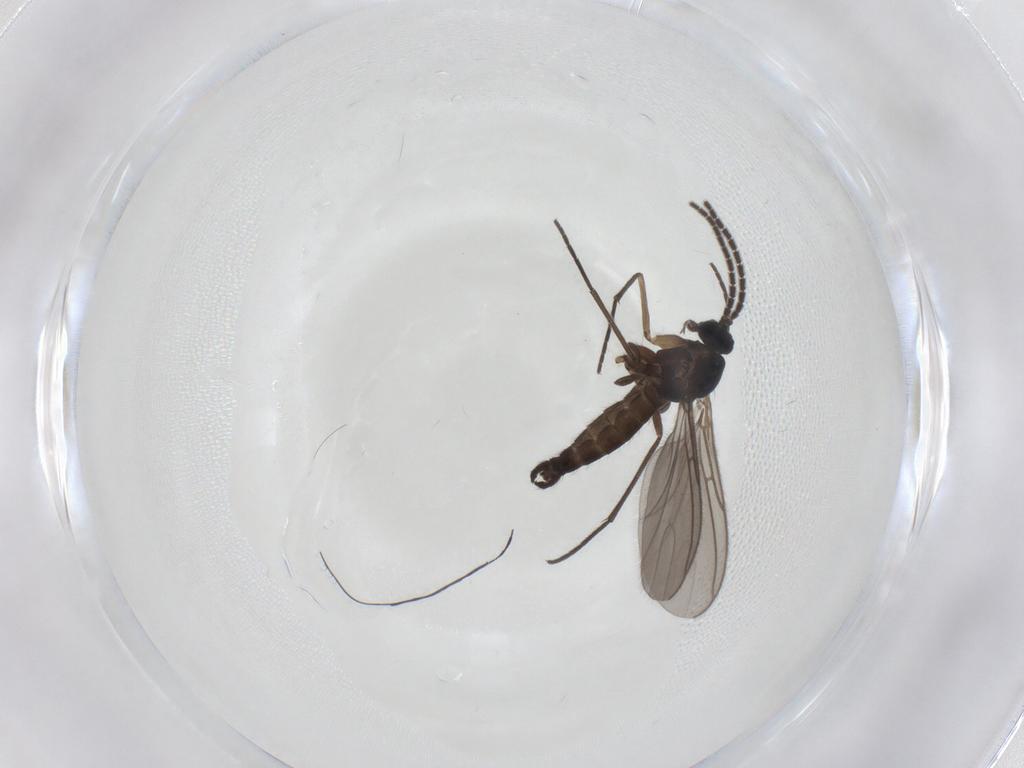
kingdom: Animalia
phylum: Arthropoda
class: Insecta
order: Diptera
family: Sciaridae
